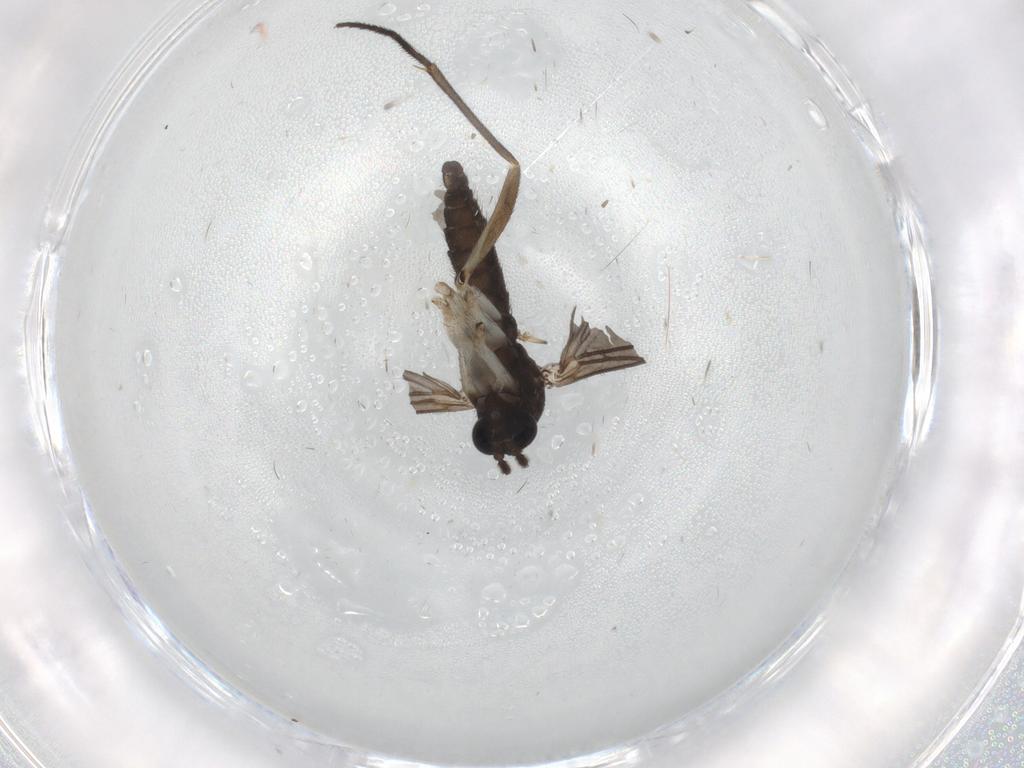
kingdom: Animalia
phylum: Arthropoda
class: Insecta
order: Diptera
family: Sciaridae
